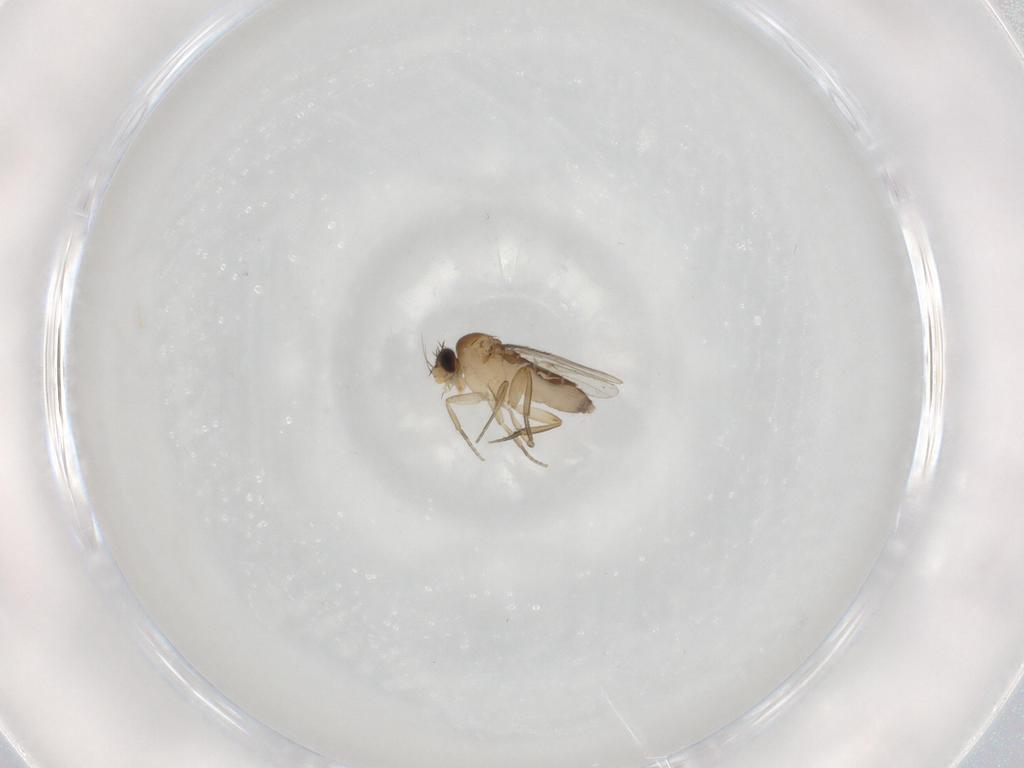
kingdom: Animalia
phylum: Arthropoda
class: Insecta
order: Diptera
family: Phoridae
